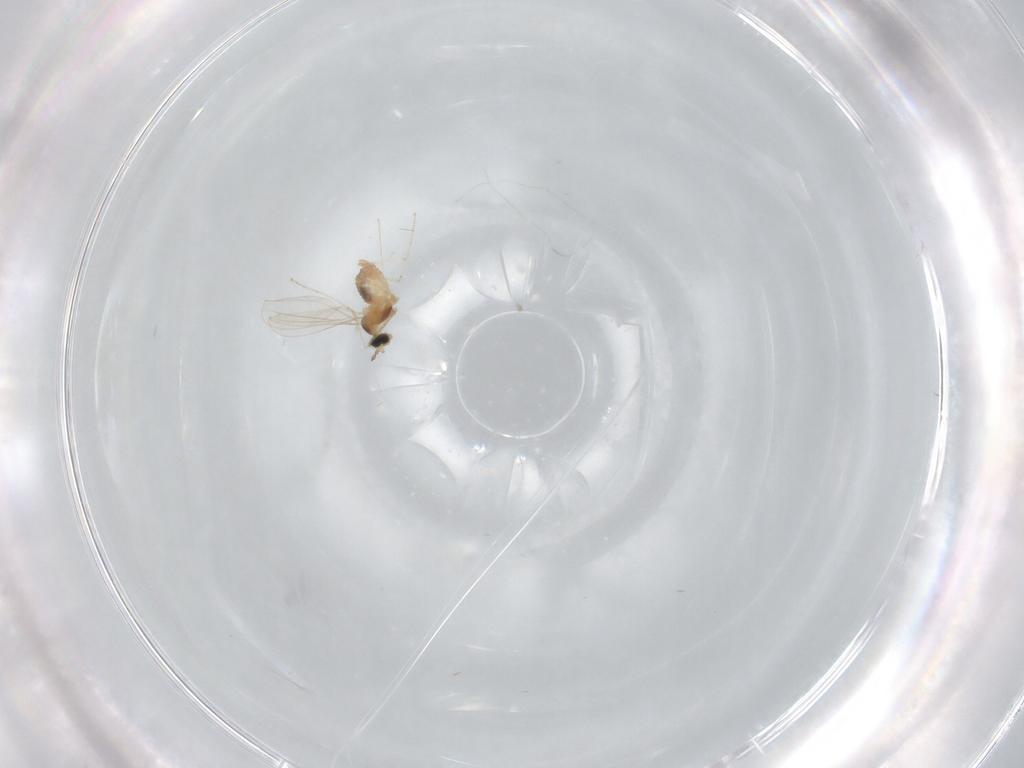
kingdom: Animalia
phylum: Arthropoda
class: Insecta
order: Diptera
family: Cecidomyiidae
